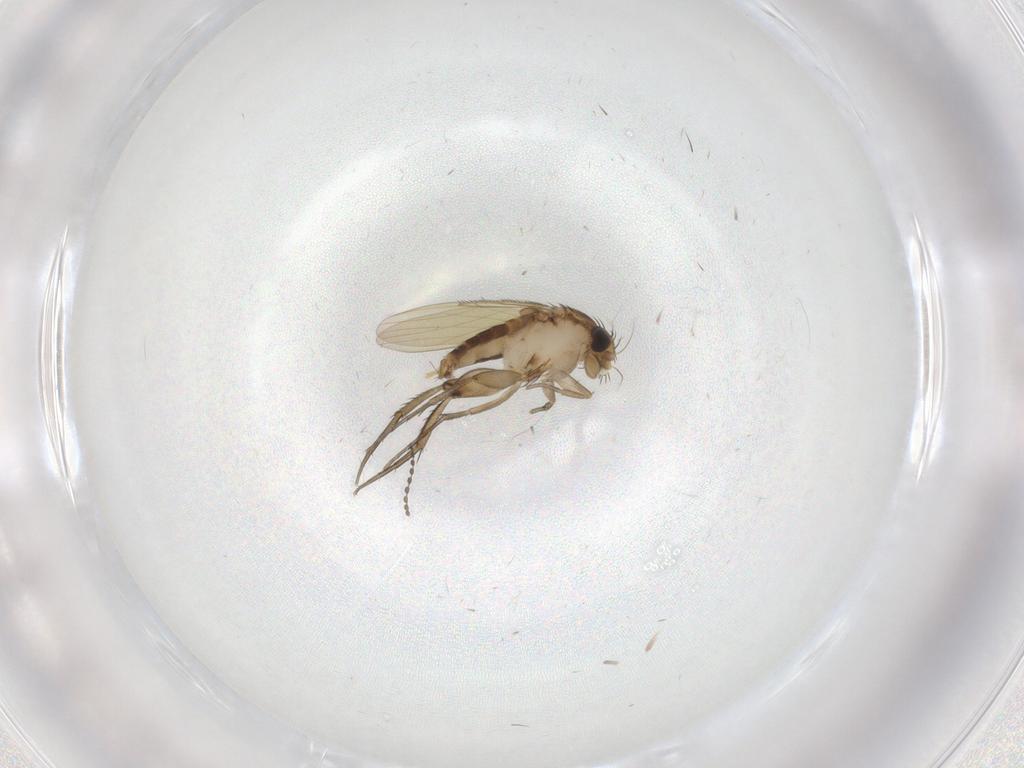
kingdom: Animalia
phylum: Arthropoda
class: Insecta
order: Diptera
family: Phoridae
